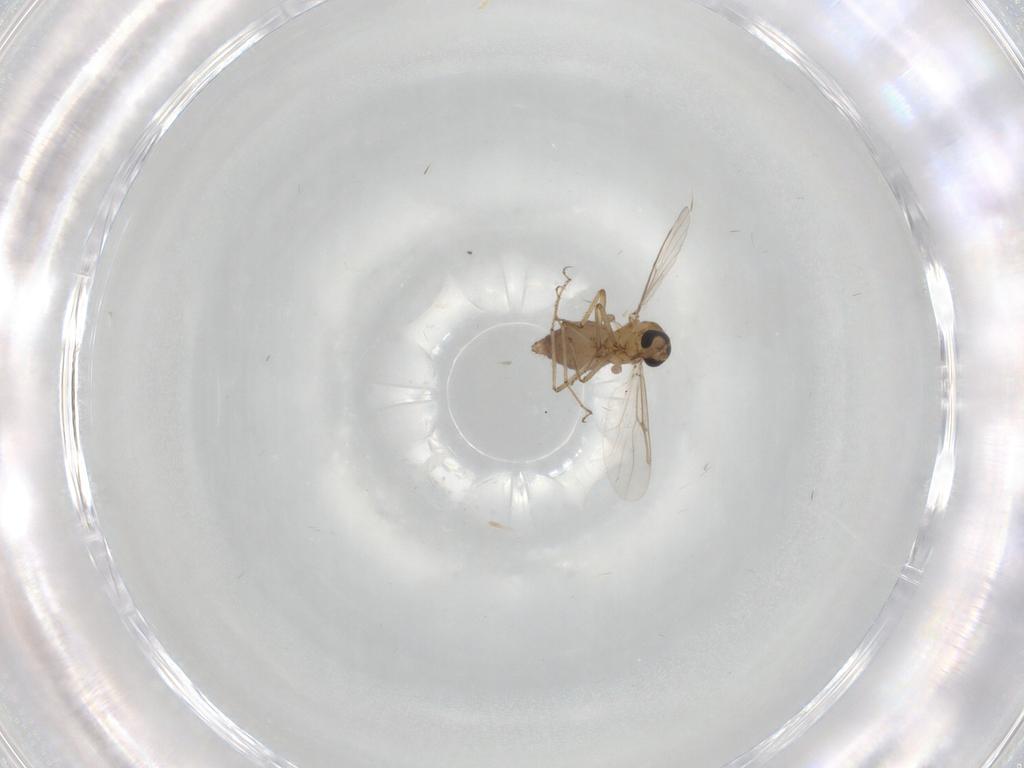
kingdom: Animalia
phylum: Arthropoda
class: Insecta
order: Diptera
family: Ceratopogonidae
